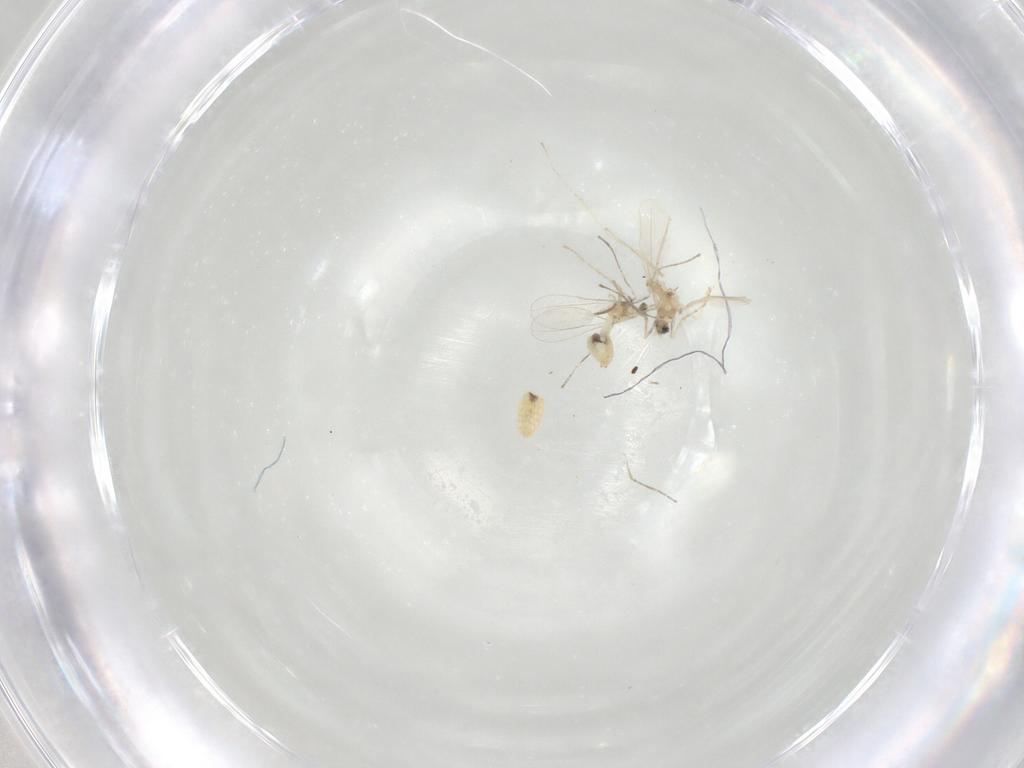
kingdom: Animalia
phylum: Arthropoda
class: Insecta
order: Diptera
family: Cecidomyiidae
